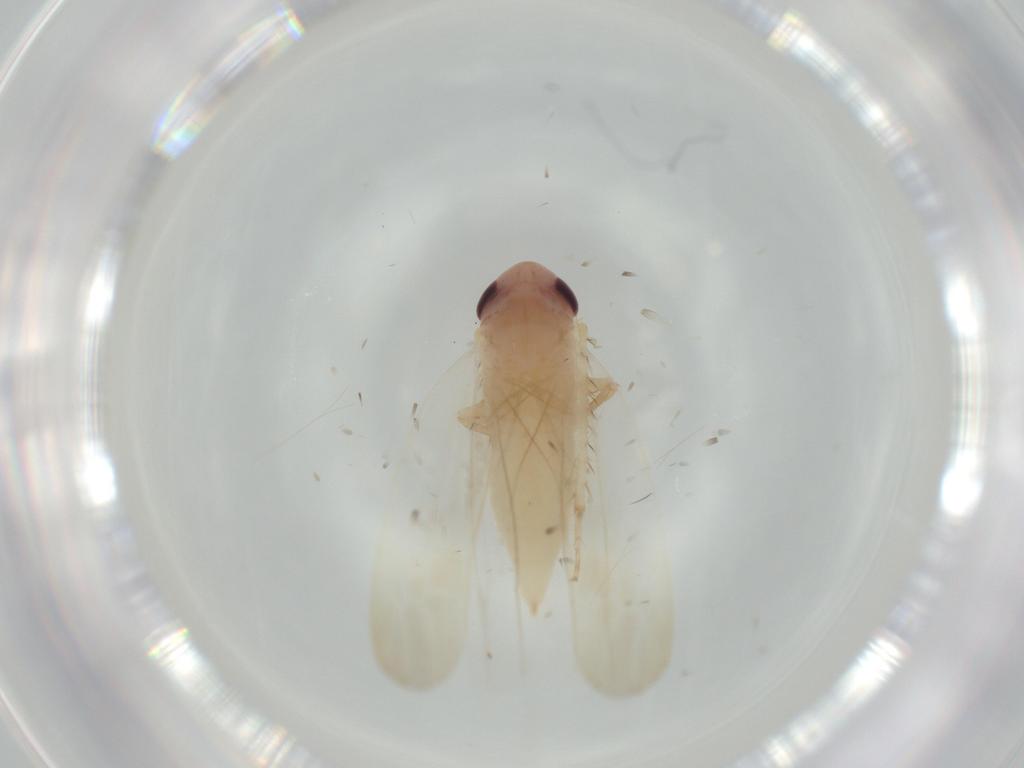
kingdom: Animalia
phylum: Arthropoda
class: Insecta
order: Hemiptera
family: Cicadellidae
